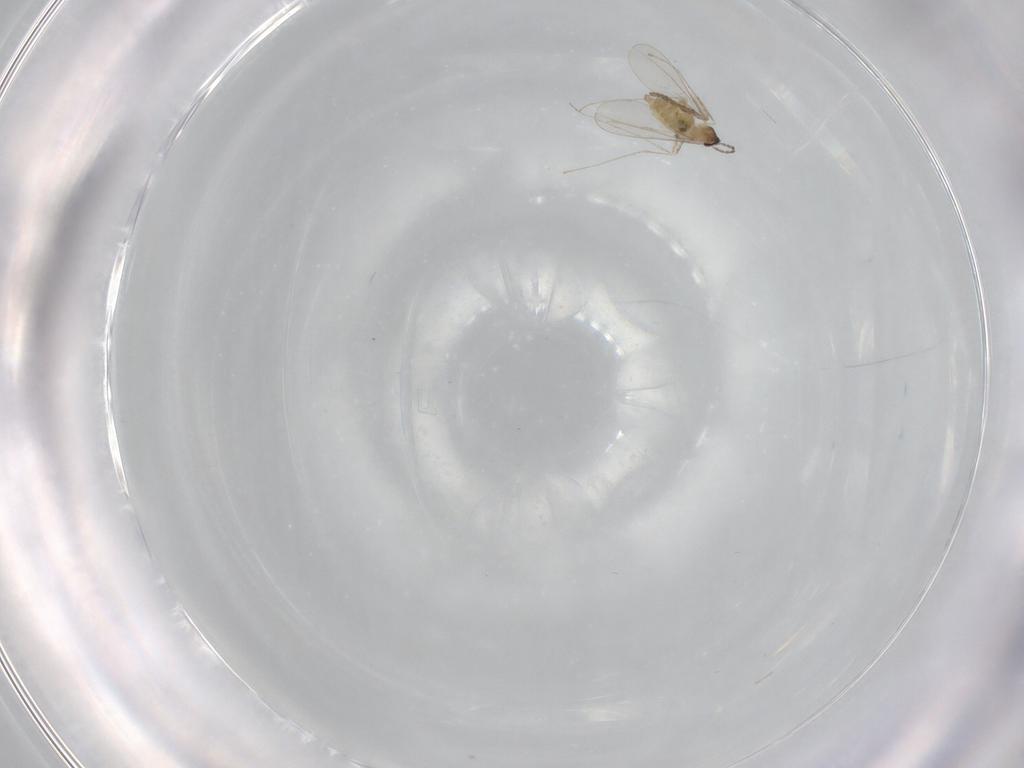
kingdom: Animalia
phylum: Arthropoda
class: Insecta
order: Diptera
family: Cecidomyiidae
